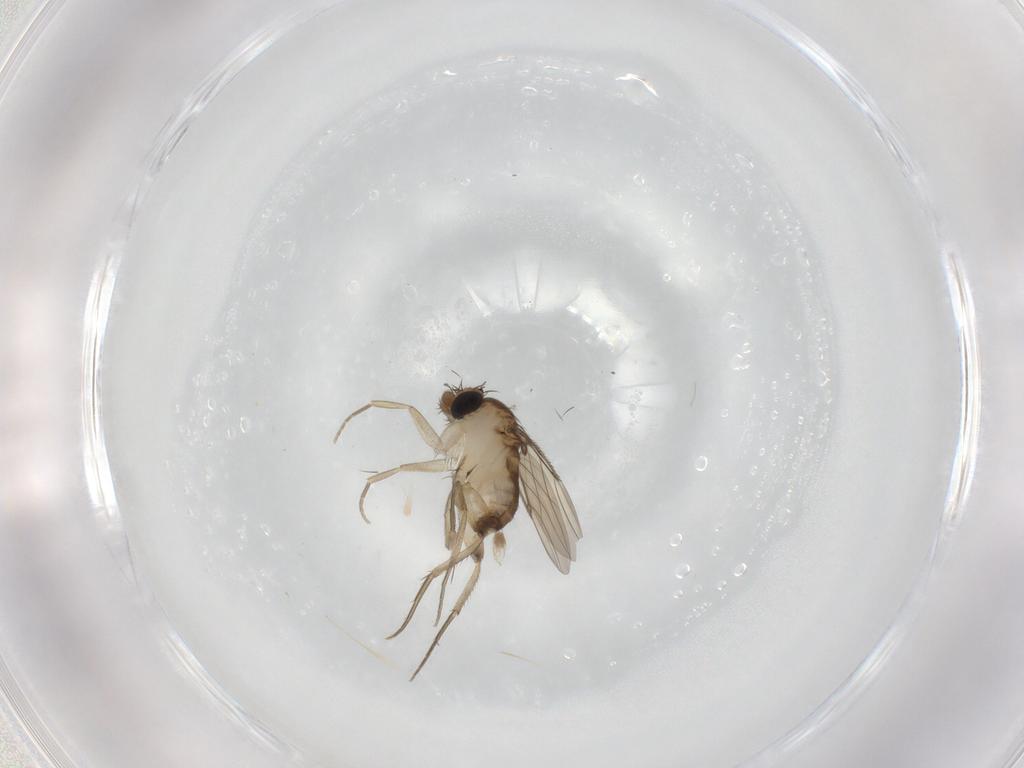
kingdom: Animalia
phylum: Arthropoda
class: Insecta
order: Diptera
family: Phoridae
